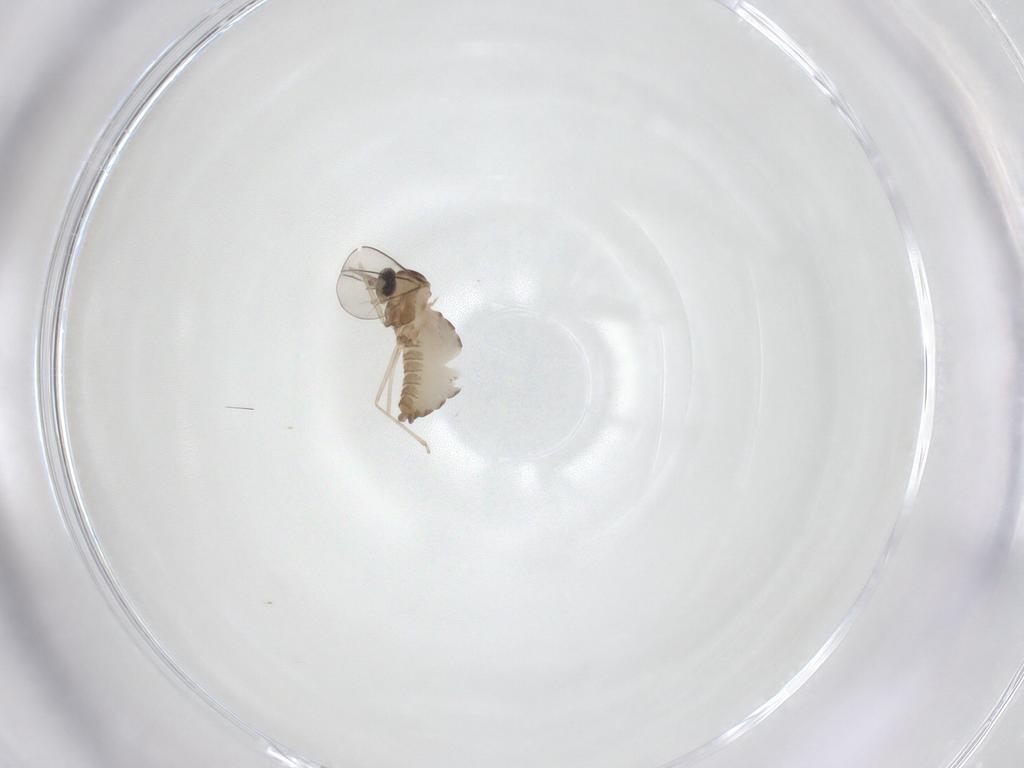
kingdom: Animalia
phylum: Arthropoda
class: Insecta
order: Diptera
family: Cecidomyiidae
